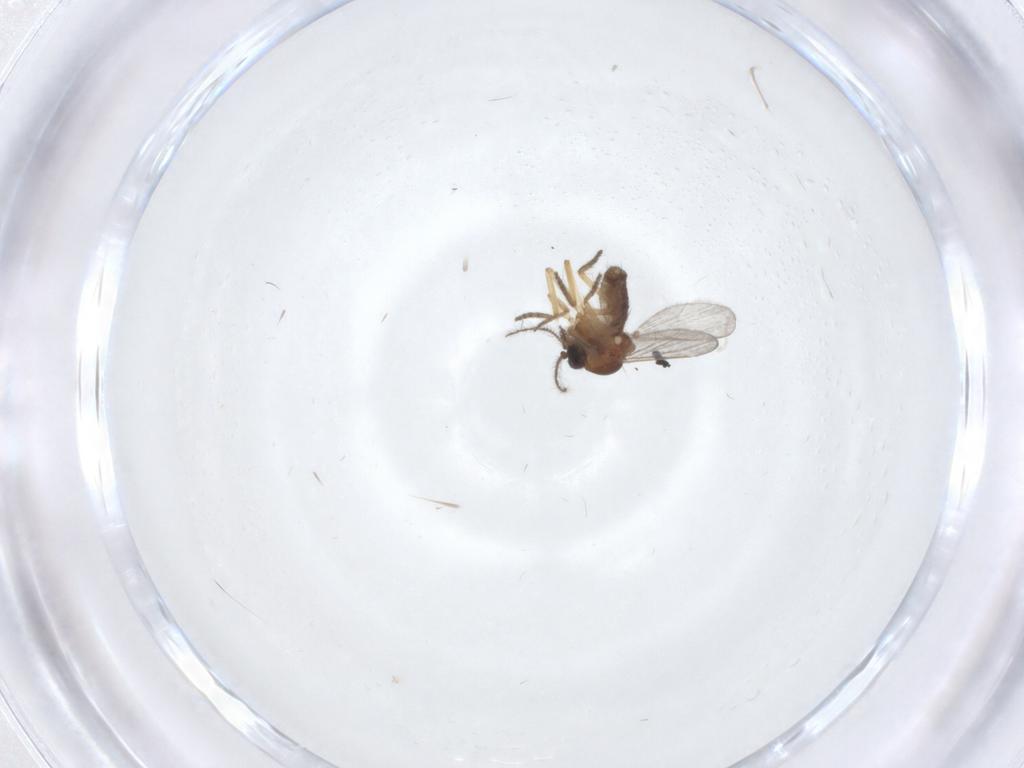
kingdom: Animalia
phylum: Arthropoda
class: Insecta
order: Diptera
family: Ceratopogonidae
